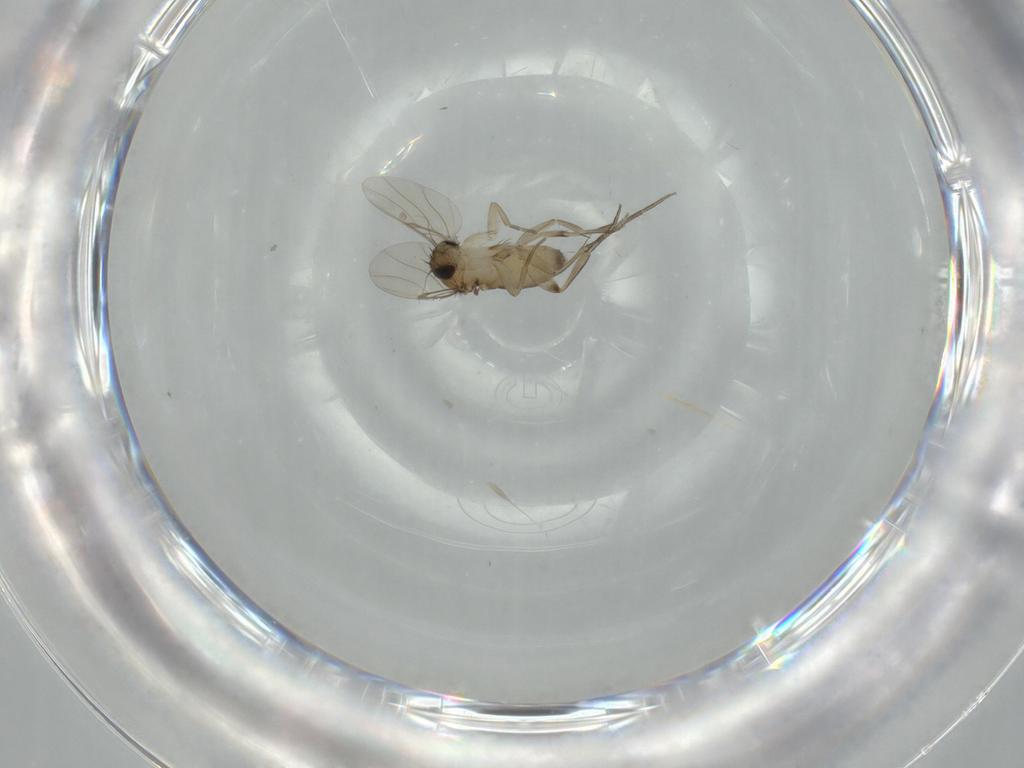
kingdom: Animalia
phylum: Arthropoda
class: Insecta
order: Diptera
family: Phoridae
